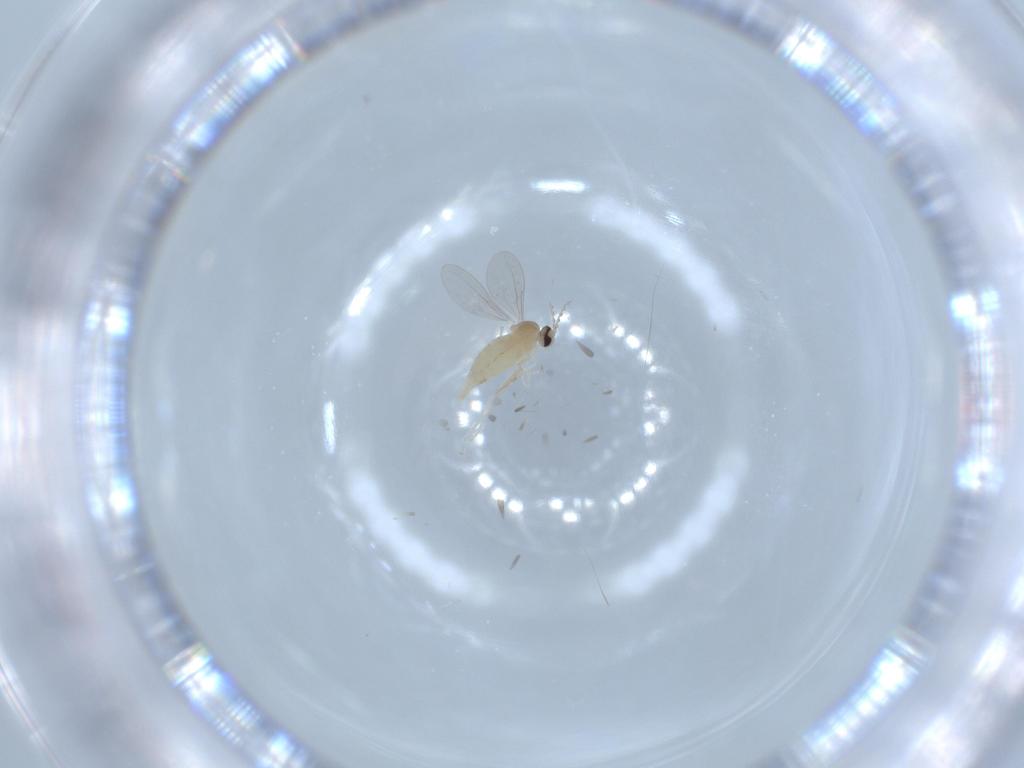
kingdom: Animalia
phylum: Arthropoda
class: Insecta
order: Diptera
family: Cecidomyiidae
